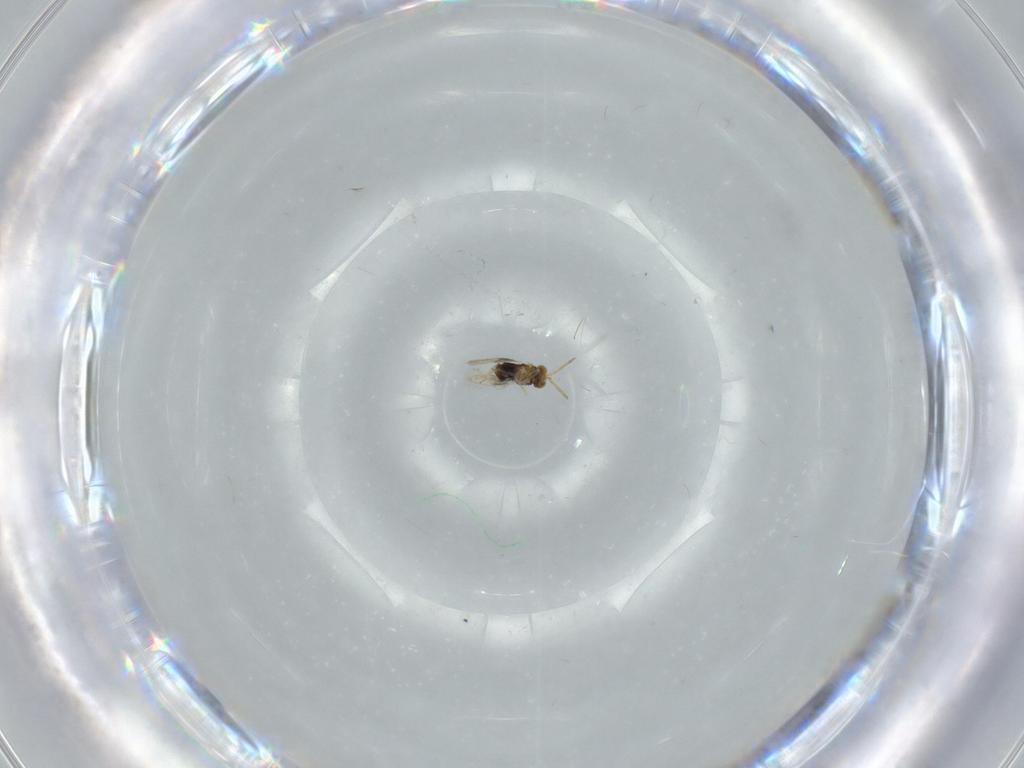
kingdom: Animalia
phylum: Arthropoda
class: Insecta
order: Hymenoptera
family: Aphelinidae
